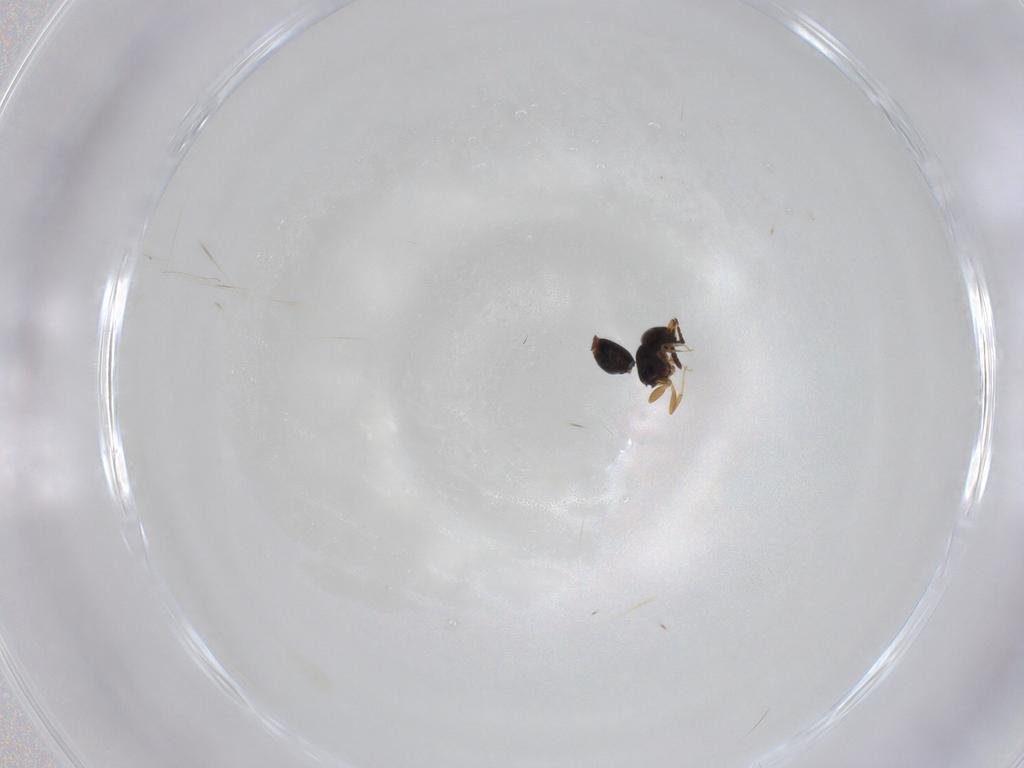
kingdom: Animalia
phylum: Arthropoda
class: Insecta
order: Hymenoptera
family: Ceraphronidae
